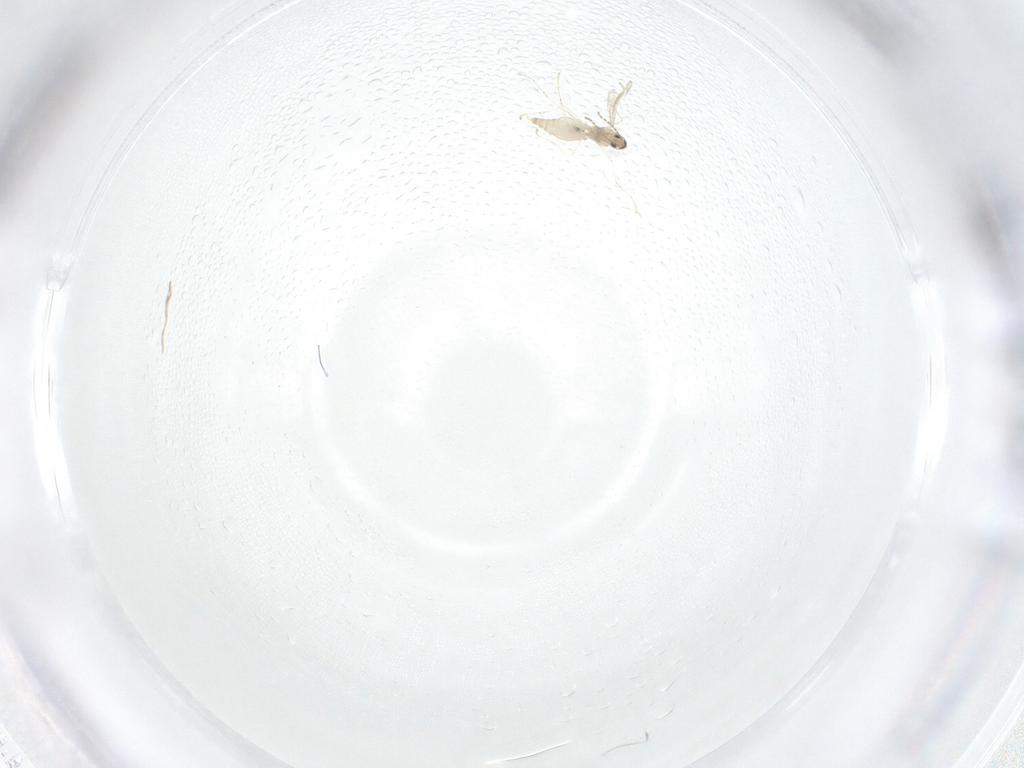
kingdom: Animalia
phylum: Arthropoda
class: Insecta
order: Diptera
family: Cecidomyiidae
